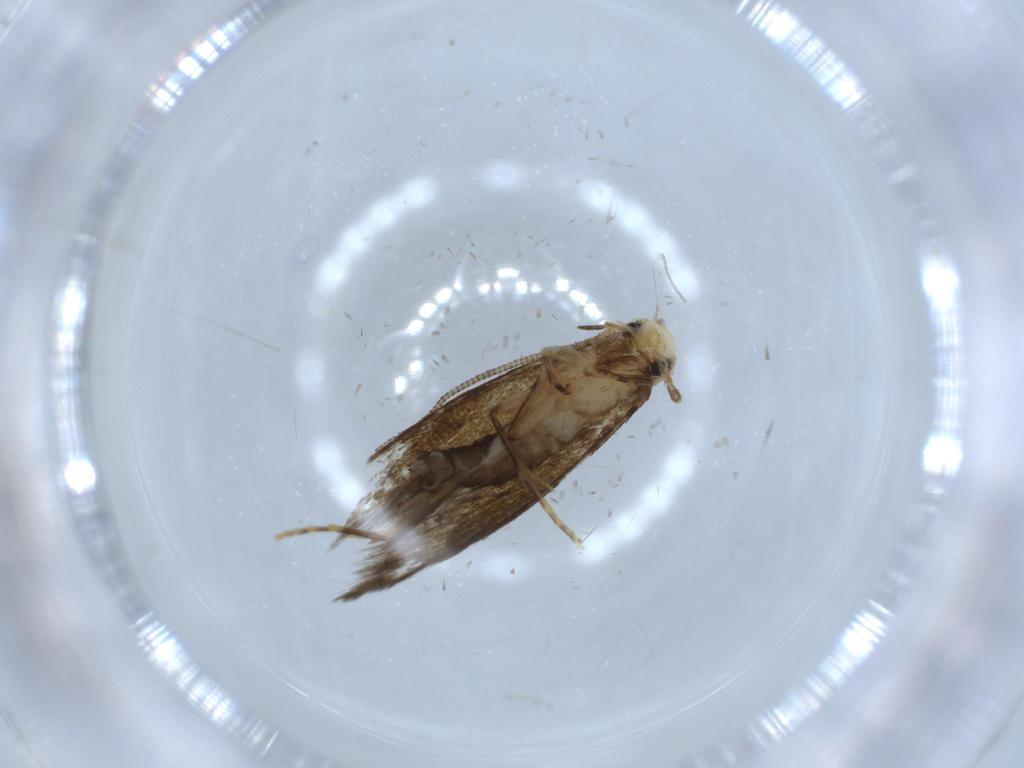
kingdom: Animalia
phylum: Arthropoda
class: Insecta
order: Lepidoptera
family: Tineidae
